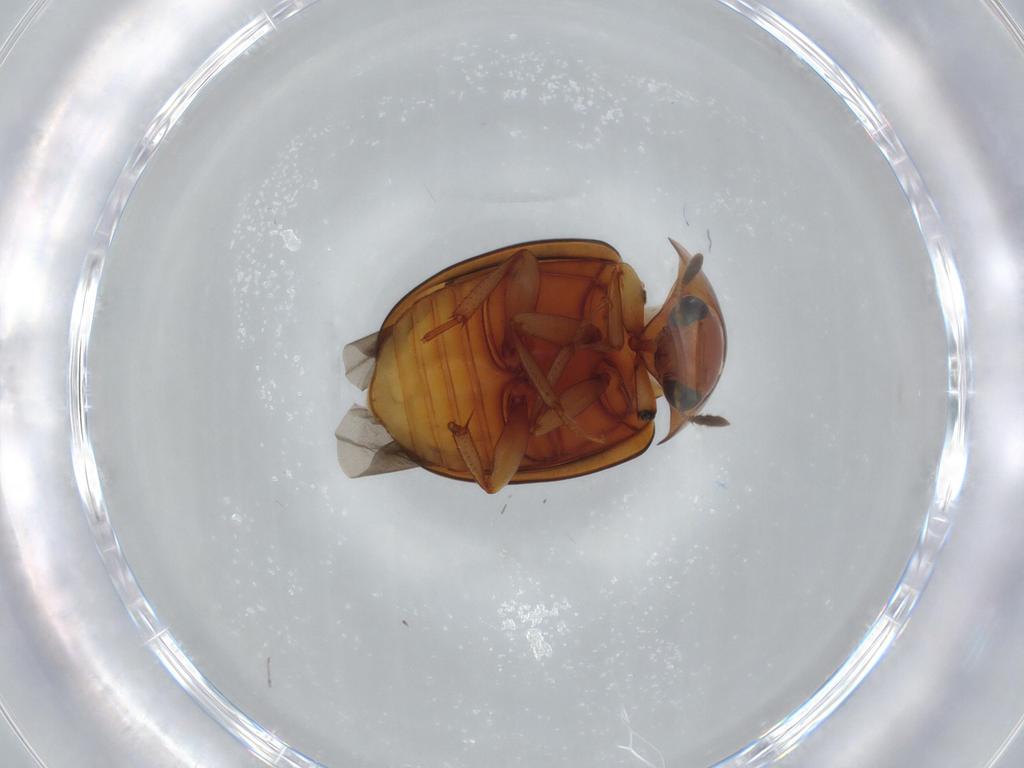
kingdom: Animalia
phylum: Arthropoda
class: Insecta
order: Coleoptera
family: Nitidulidae
